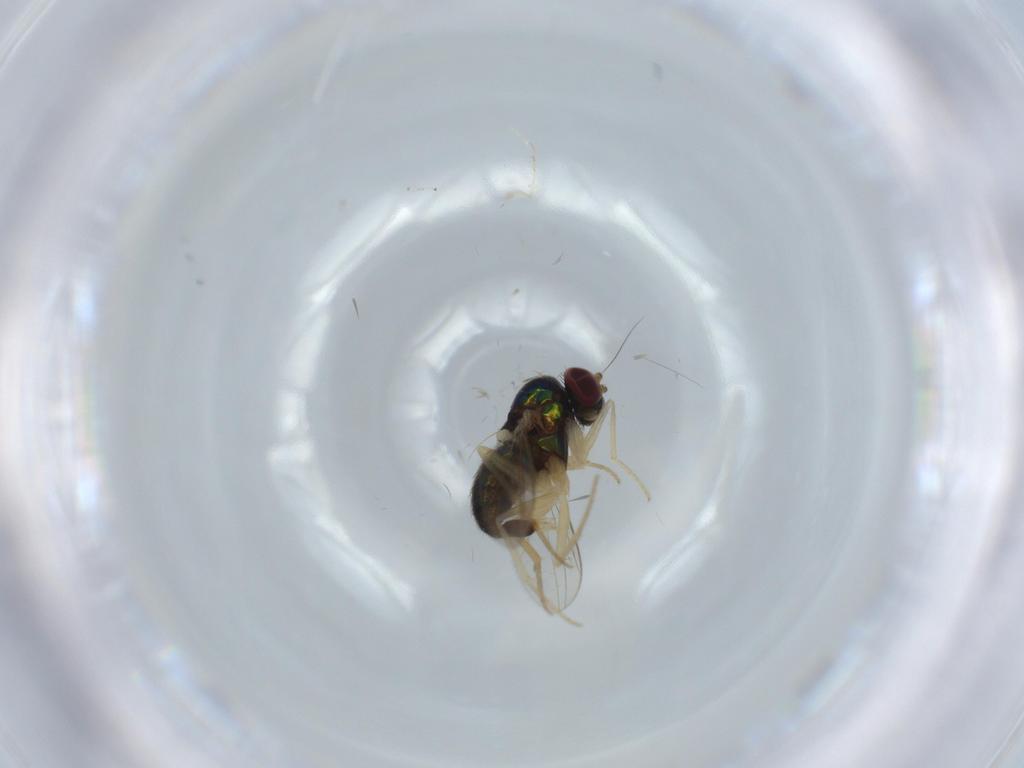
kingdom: Animalia
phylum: Arthropoda
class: Insecta
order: Diptera
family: Dolichopodidae
